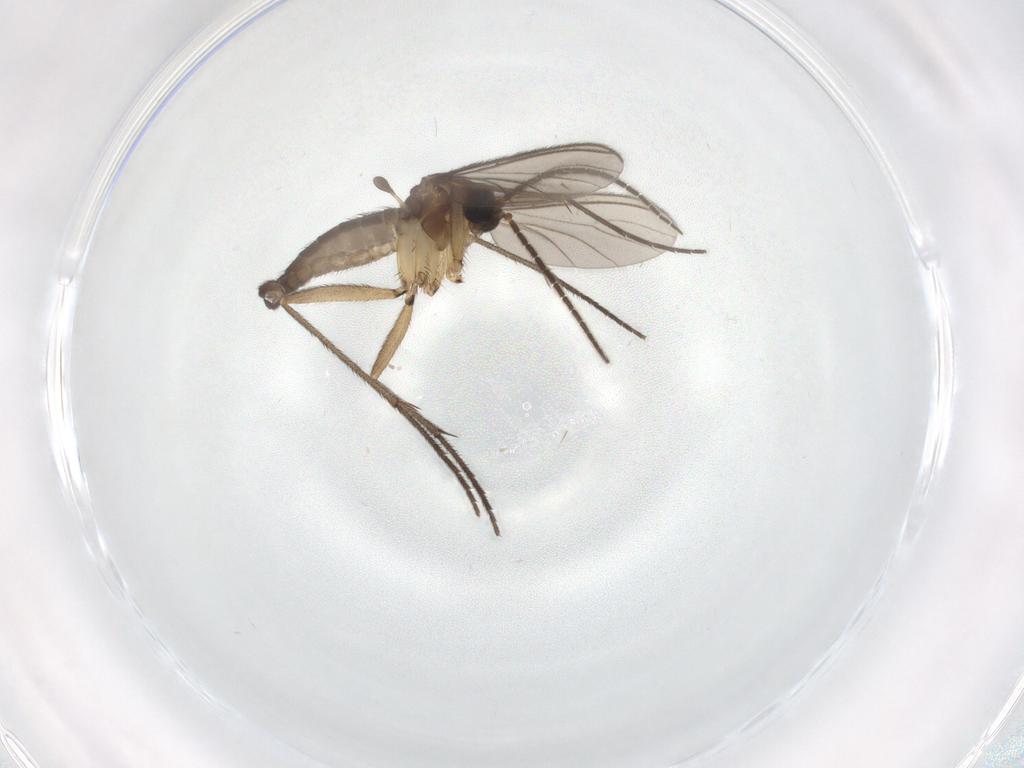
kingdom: Animalia
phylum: Arthropoda
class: Insecta
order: Diptera
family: Sciaridae
